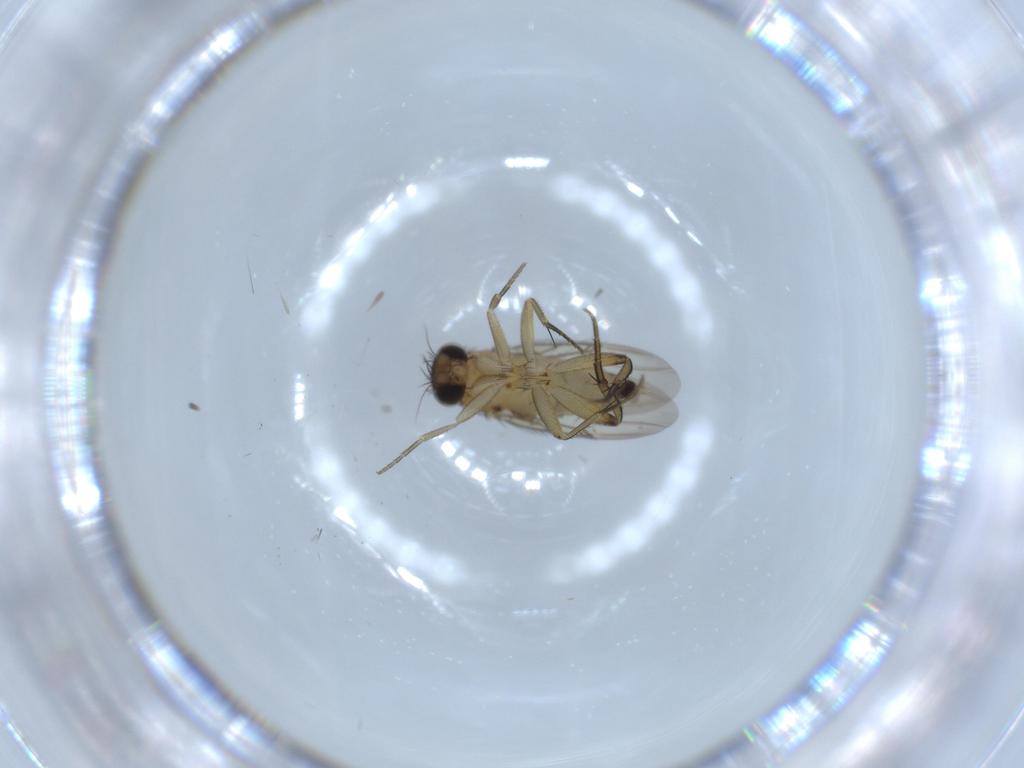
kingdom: Animalia
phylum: Arthropoda
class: Insecta
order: Diptera
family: Phoridae
